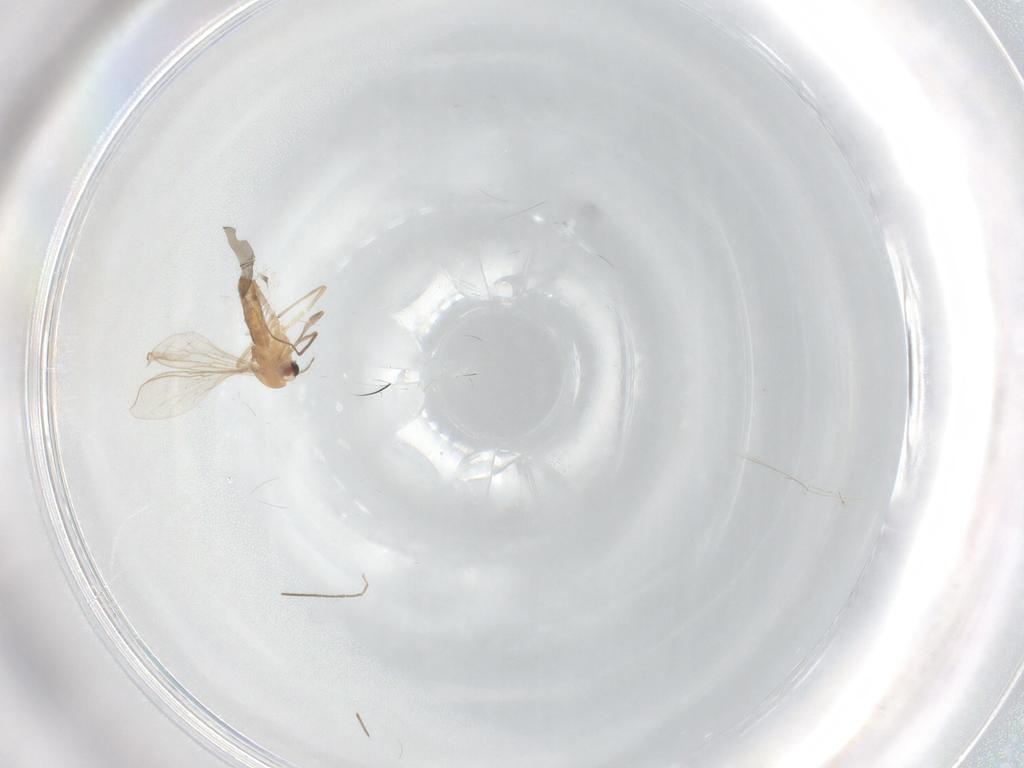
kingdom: Animalia
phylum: Arthropoda
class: Insecta
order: Diptera
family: Chironomidae
